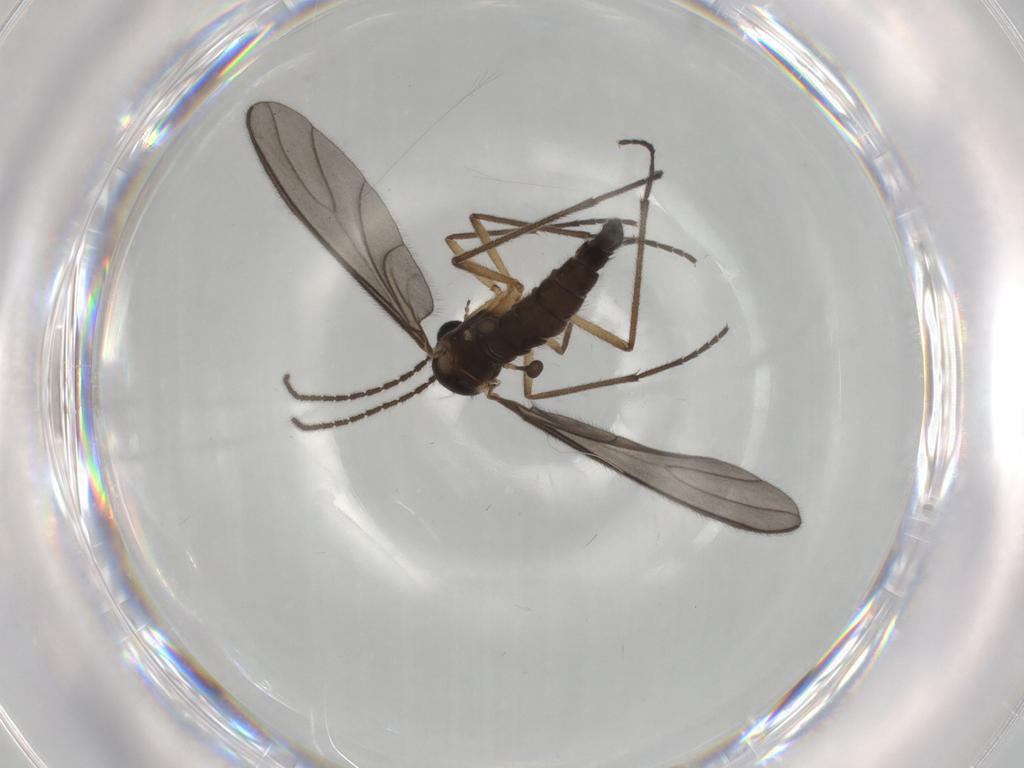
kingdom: Animalia
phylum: Arthropoda
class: Insecta
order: Diptera
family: Sciaridae
